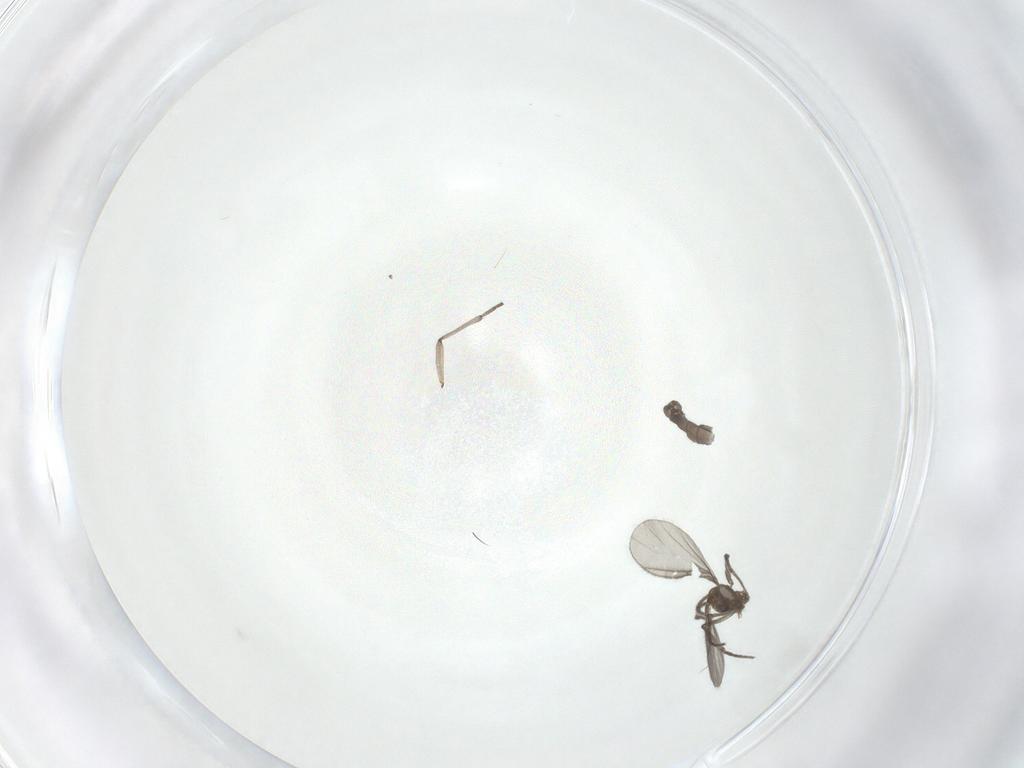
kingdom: Animalia
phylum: Arthropoda
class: Insecta
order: Diptera
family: Sciaridae
